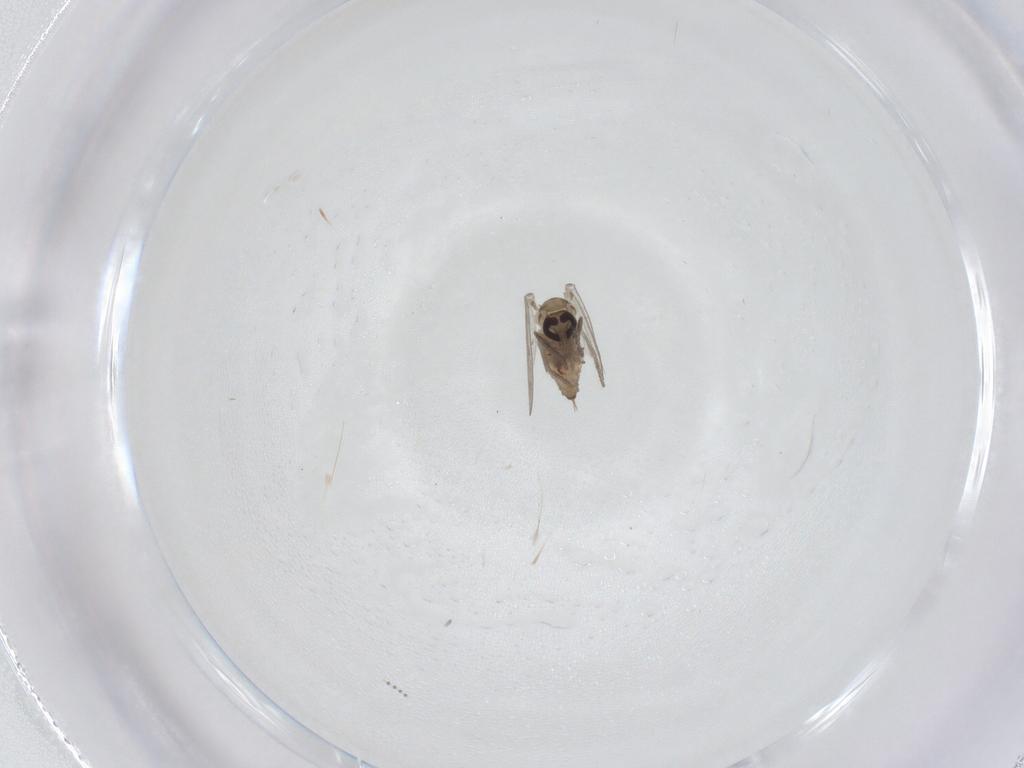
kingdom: Animalia
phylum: Arthropoda
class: Insecta
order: Diptera
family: Psychodidae
